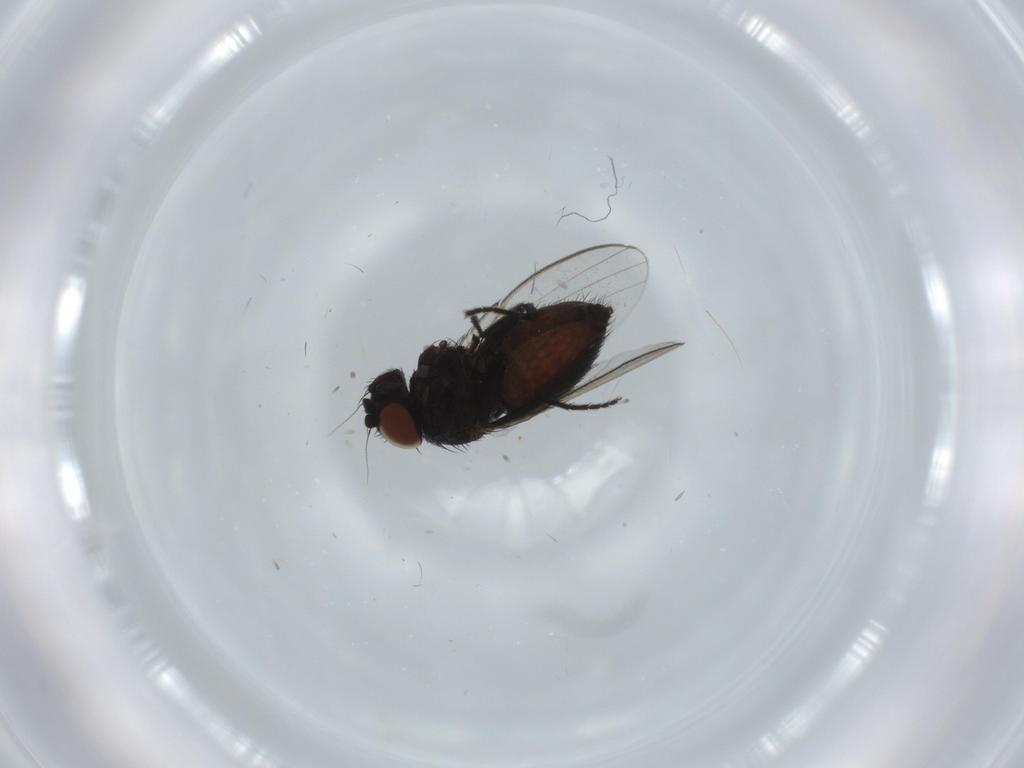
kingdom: Animalia
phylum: Arthropoda
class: Insecta
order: Diptera
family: Milichiidae
